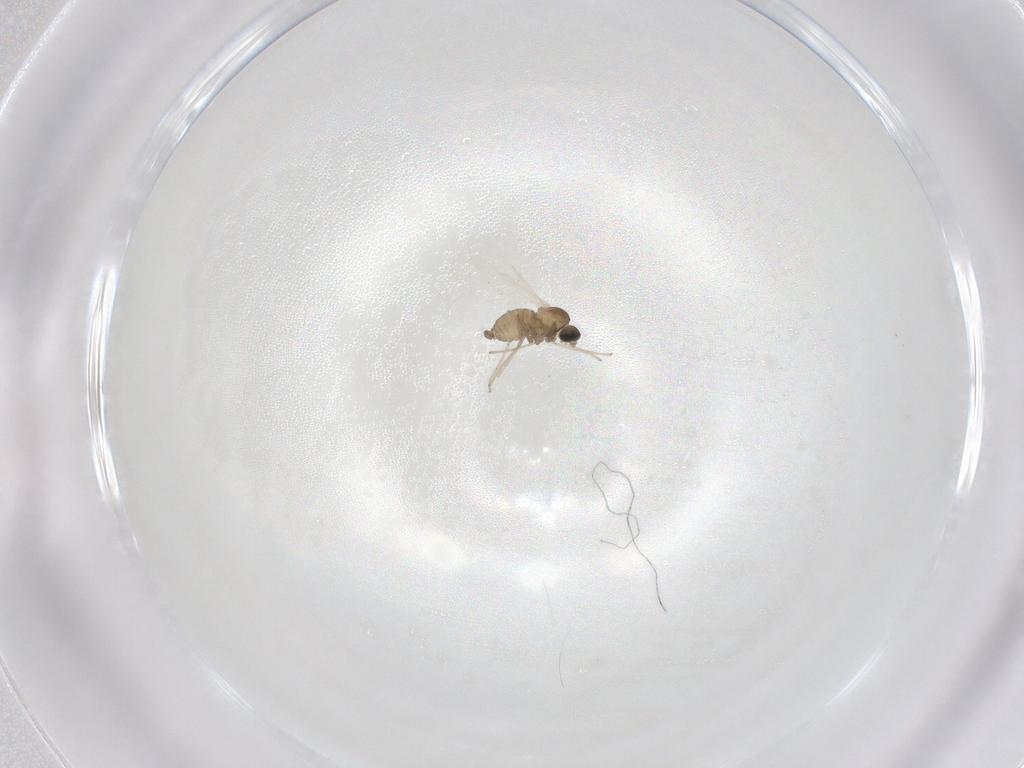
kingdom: Animalia
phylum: Arthropoda
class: Insecta
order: Diptera
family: Cecidomyiidae
